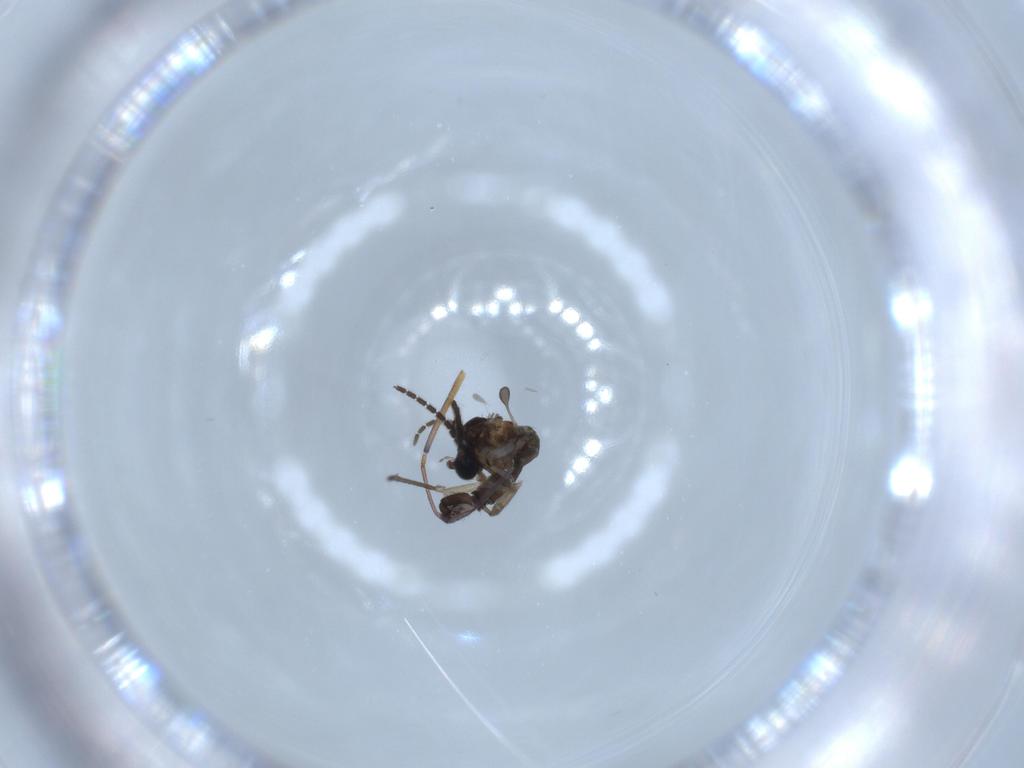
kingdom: Animalia
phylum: Arthropoda
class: Insecta
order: Diptera
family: Sciaridae
